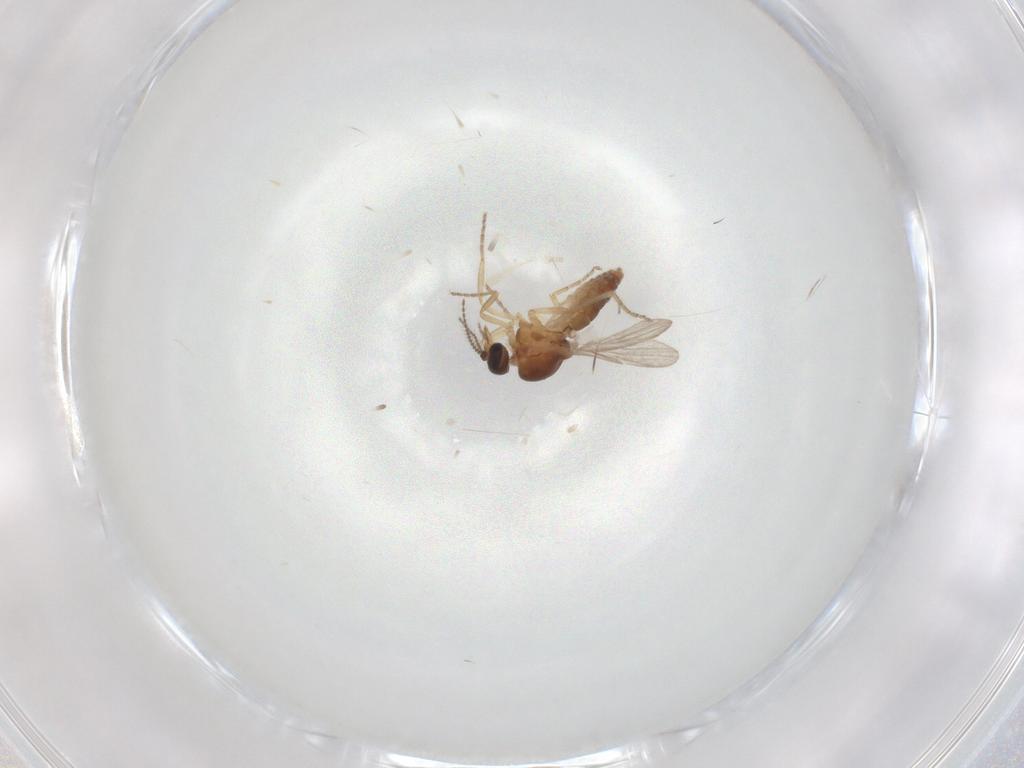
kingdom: Animalia
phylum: Arthropoda
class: Insecta
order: Diptera
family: Ceratopogonidae
